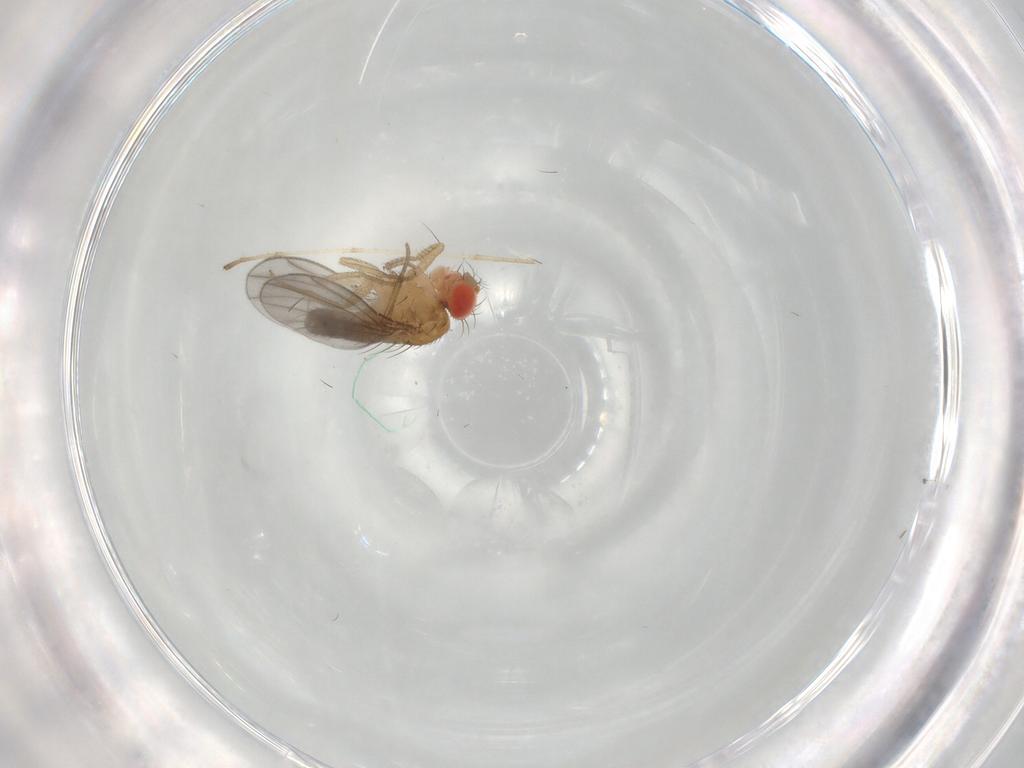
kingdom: Animalia
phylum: Arthropoda
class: Insecta
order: Diptera
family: Drosophilidae
